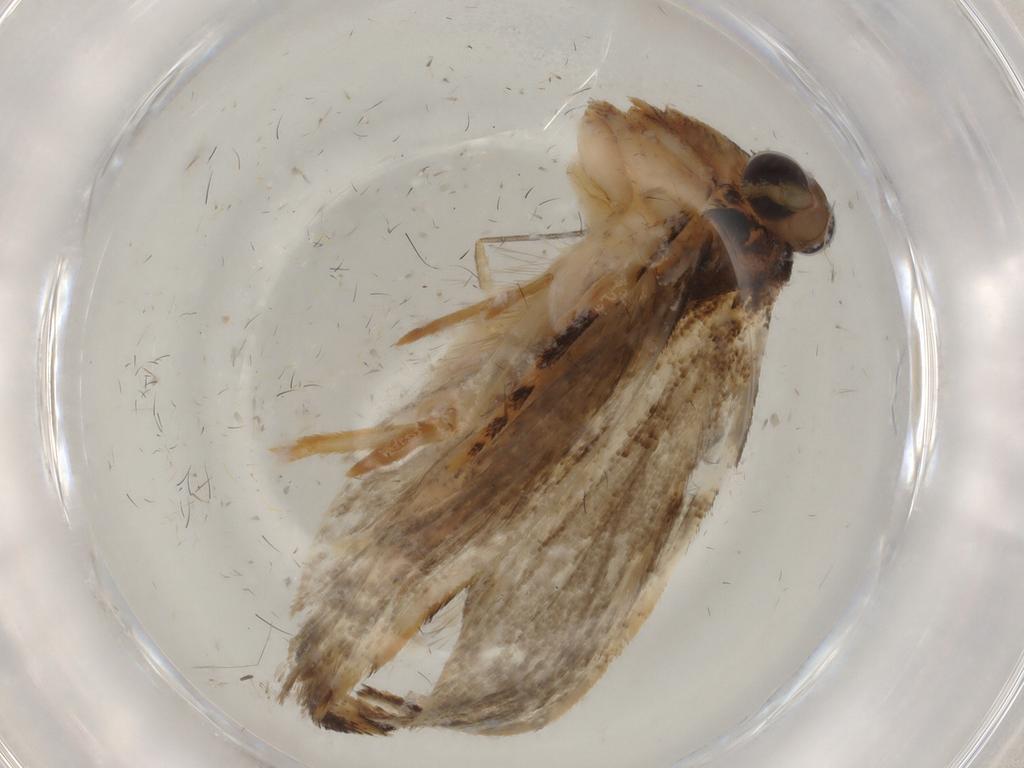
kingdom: Animalia
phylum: Arthropoda
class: Insecta
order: Lepidoptera
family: Tineidae
